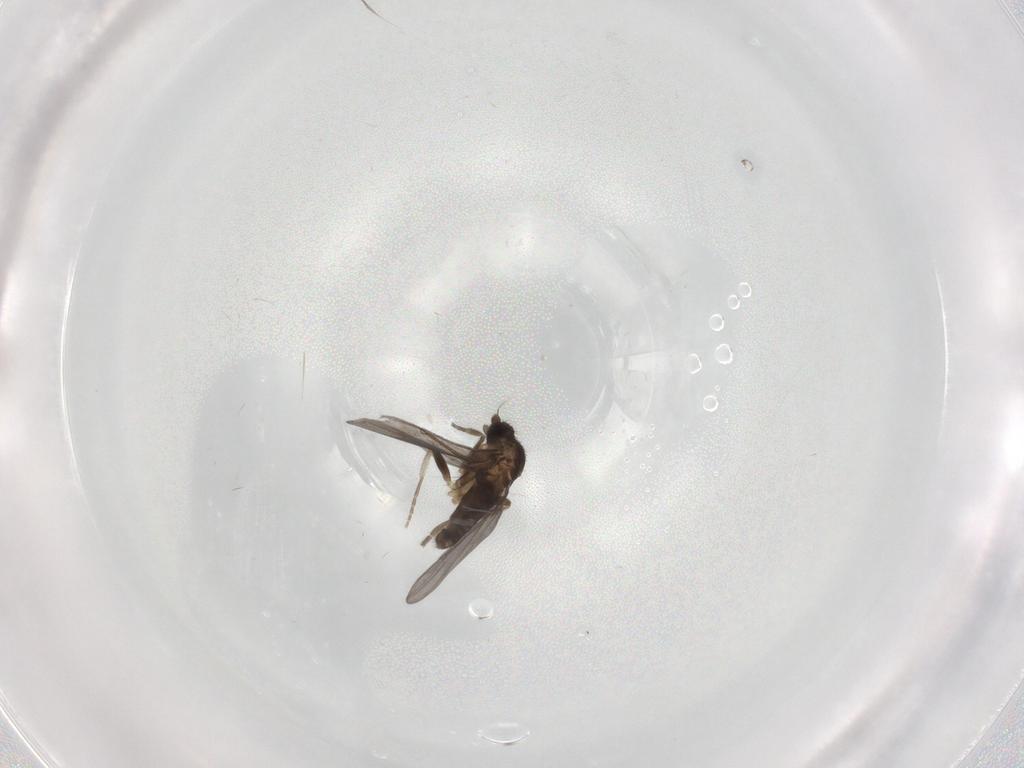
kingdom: Animalia
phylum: Arthropoda
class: Insecta
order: Diptera
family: Phoridae
